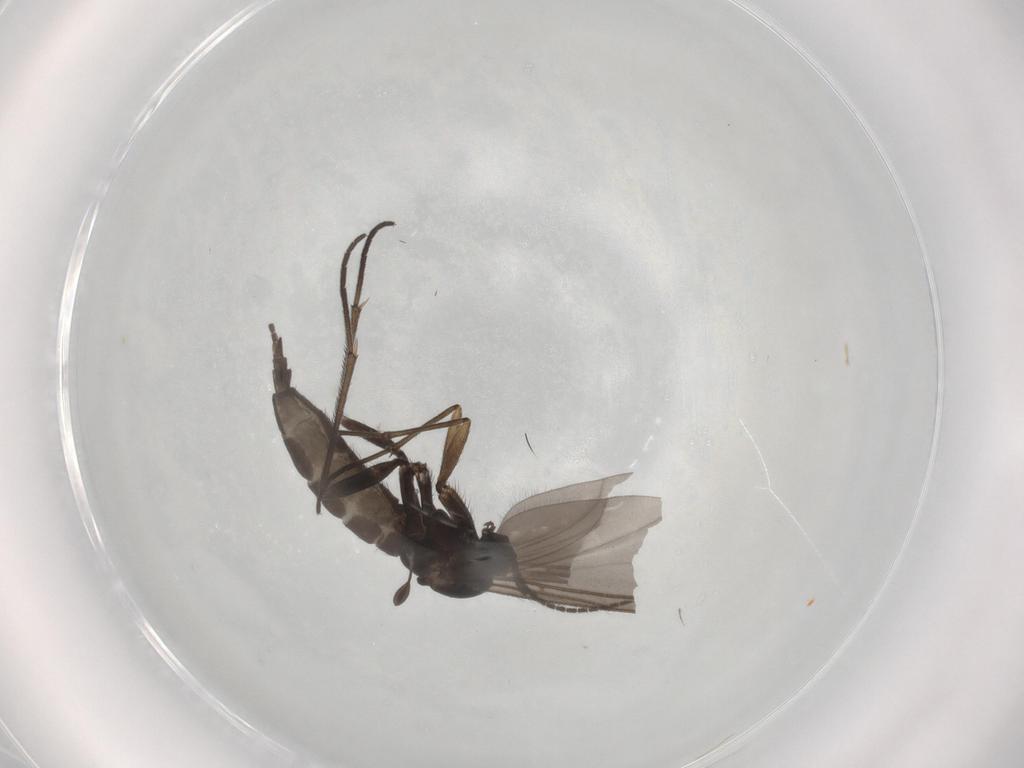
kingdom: Animalia
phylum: Arthropoda
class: Insecta
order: Diptera
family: Sciaridae
